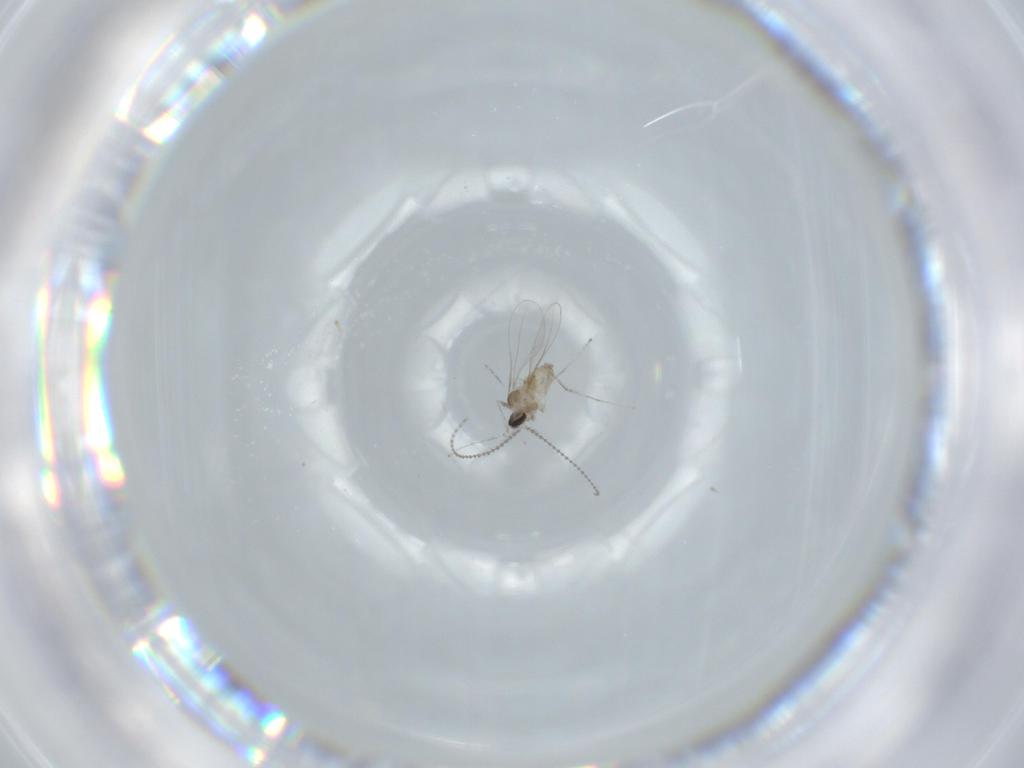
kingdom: Animalia
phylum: Arthropoda
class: Insecta
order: Diptera
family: Cecidomyiidae
